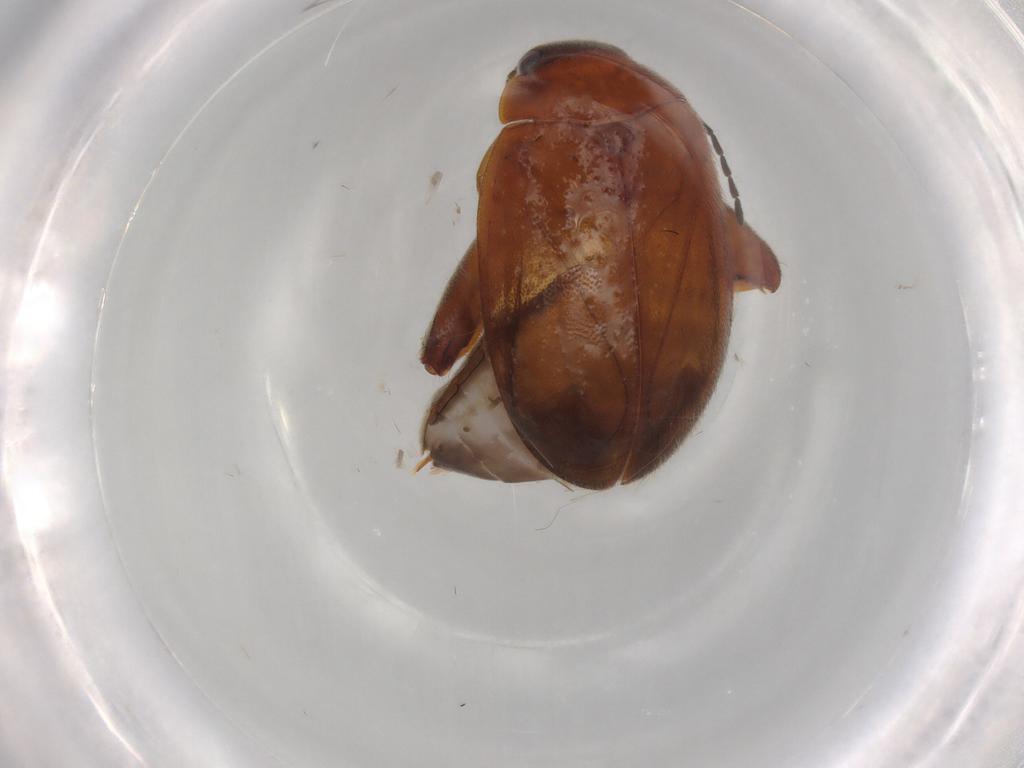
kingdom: Animalia
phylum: Arthropoda
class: Insecta
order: Coleoptera
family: Scirtidae
